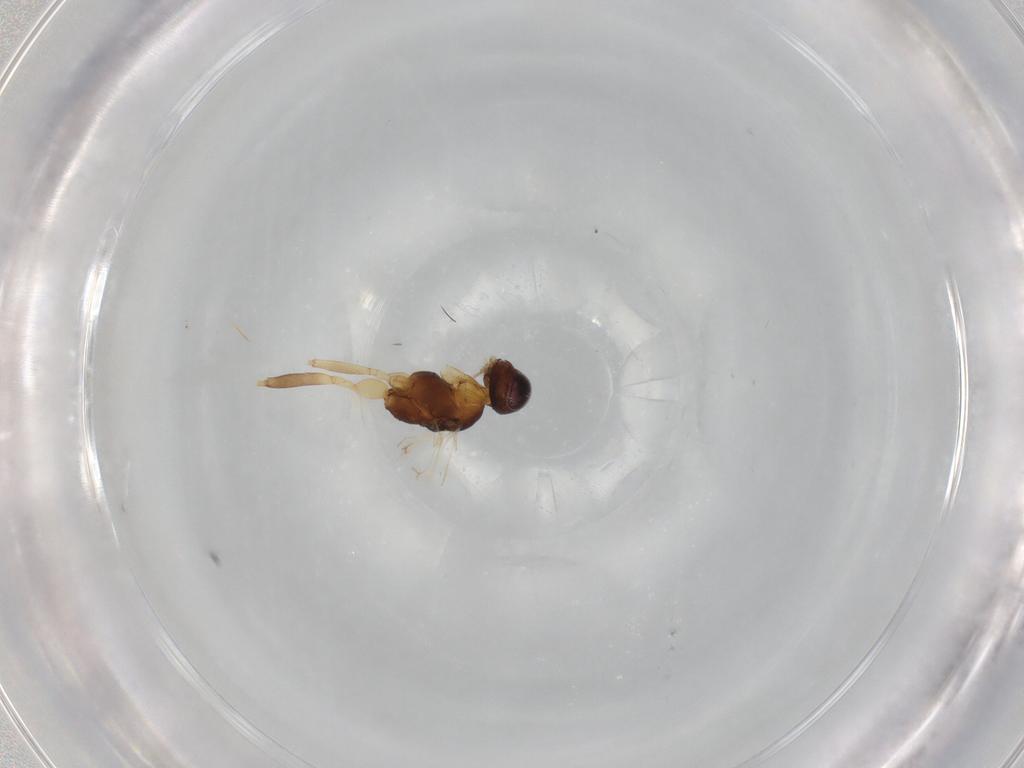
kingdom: Animalia
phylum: Arthropoda
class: Insecta
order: Hymenoptera
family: Ichneumonidae
